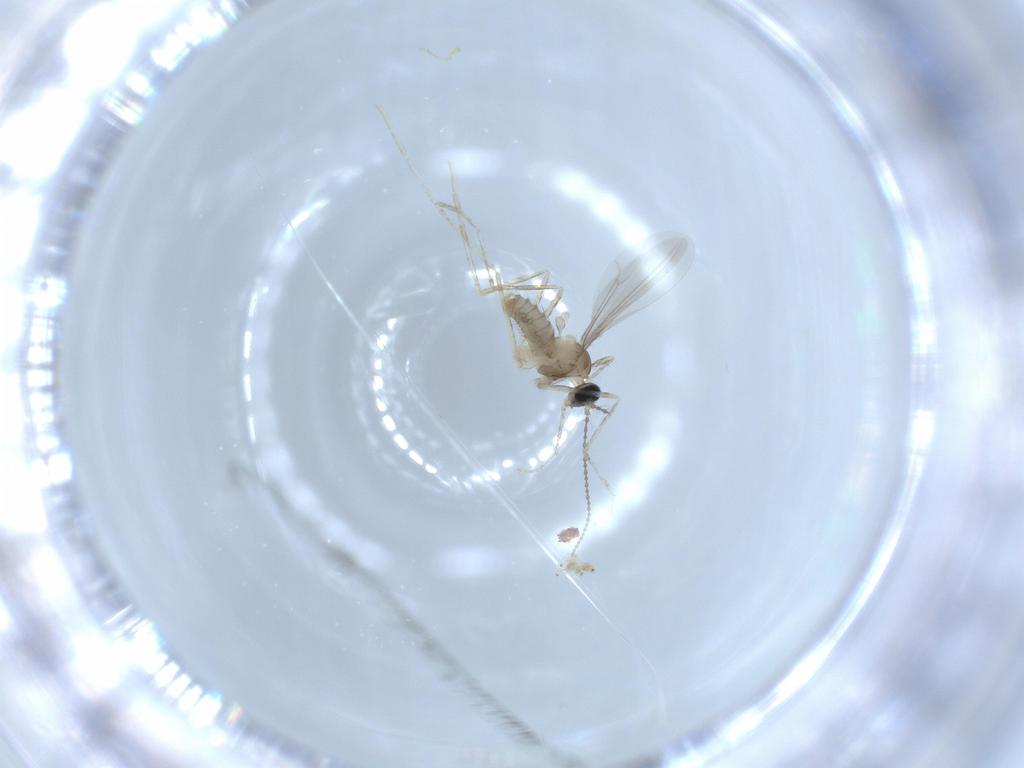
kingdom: Animalia
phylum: Arthropoda
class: Insecta
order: Diptera
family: Cecidomyiidae
